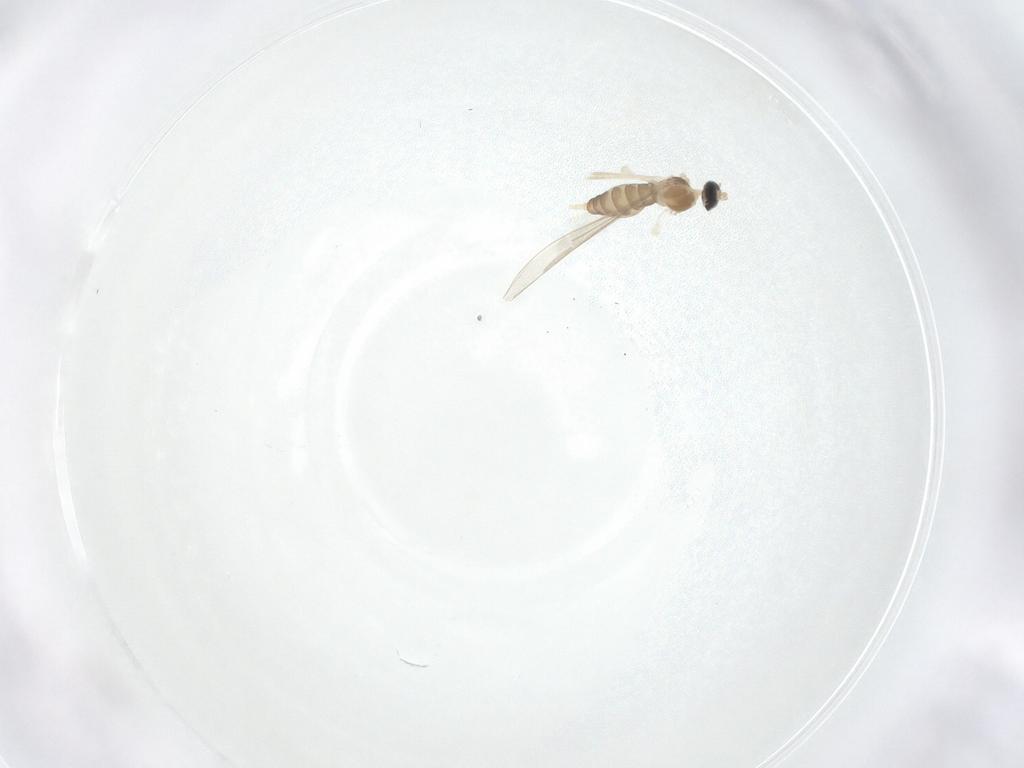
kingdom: Animalia
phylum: Arthropoda
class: Insecta
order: Diptera
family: Cecidomyiidae
